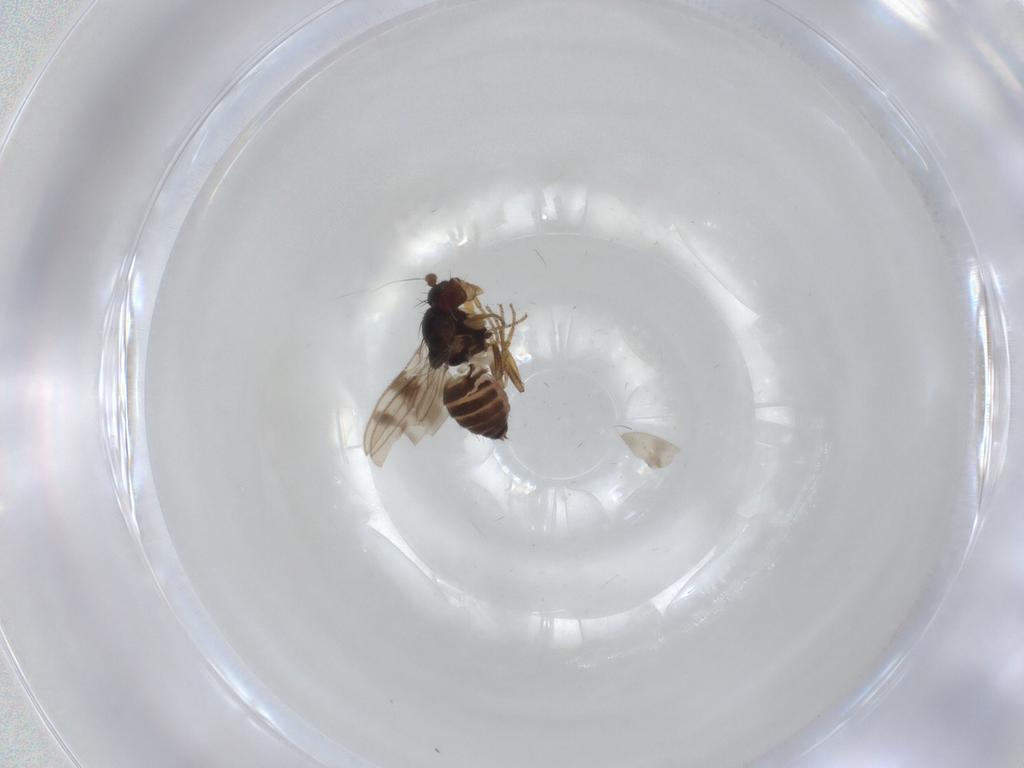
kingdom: Animalia
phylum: Arthropoda
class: Insecta
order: Diptera
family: Sphaeroceridae
